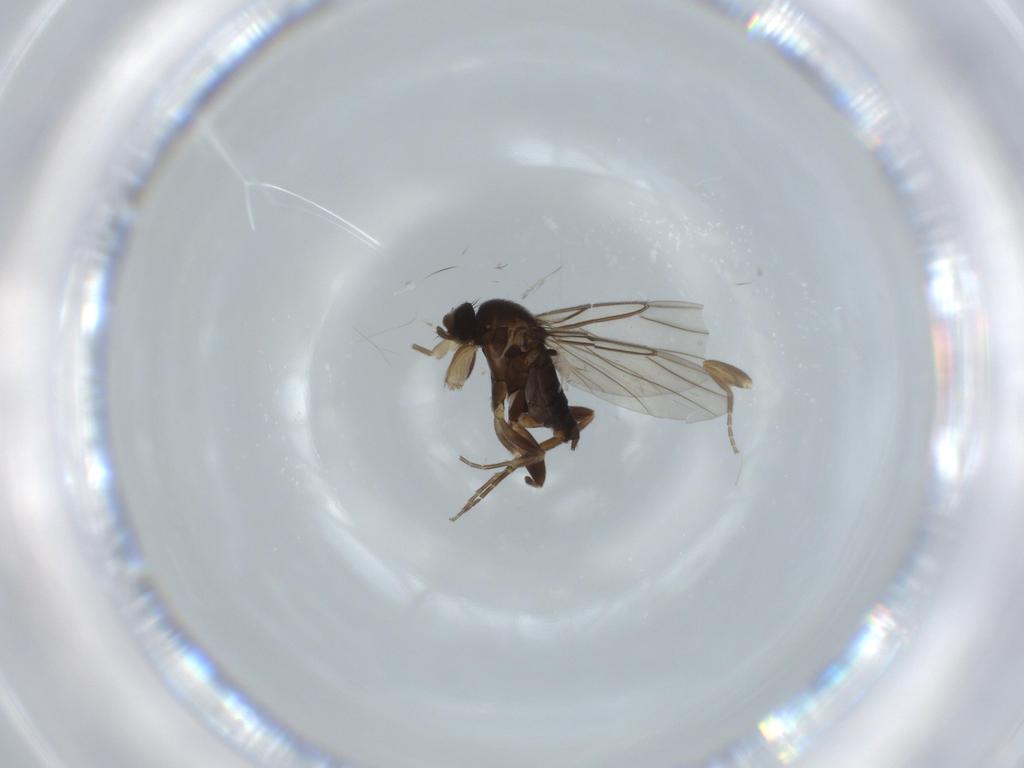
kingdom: Animalia
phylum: Arthropoda
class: Insecta
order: Diptera
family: Phoridae
